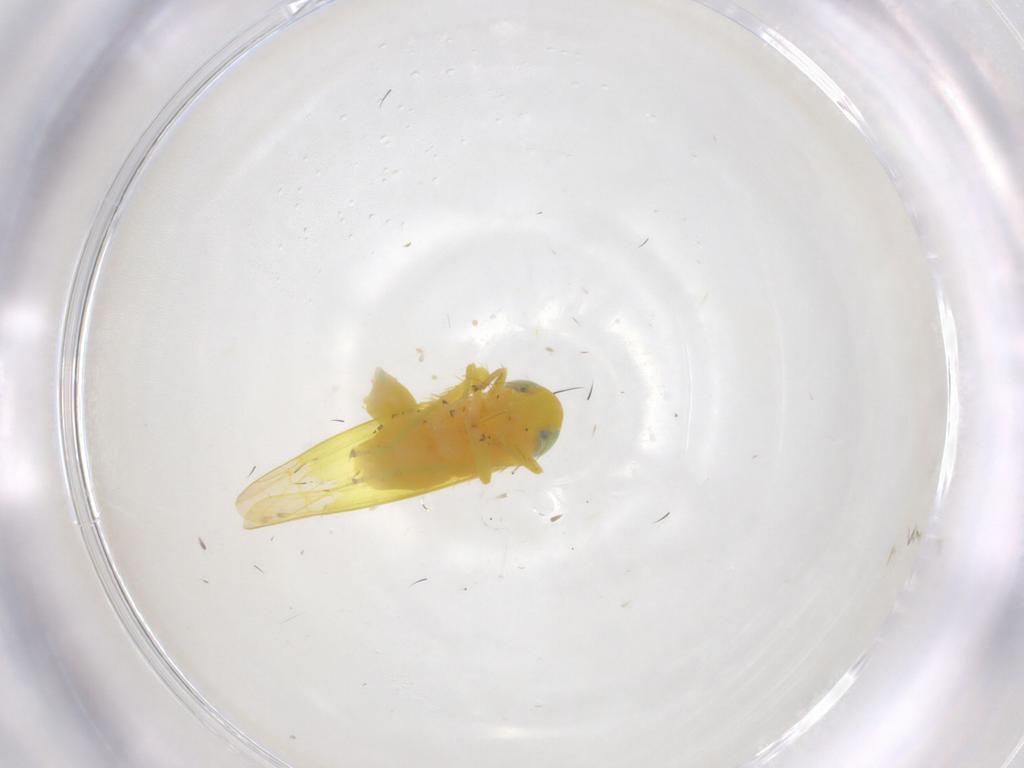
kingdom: Animalia
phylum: Arthropoda
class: Insecta
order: Hemiptera
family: Cicadellidae
